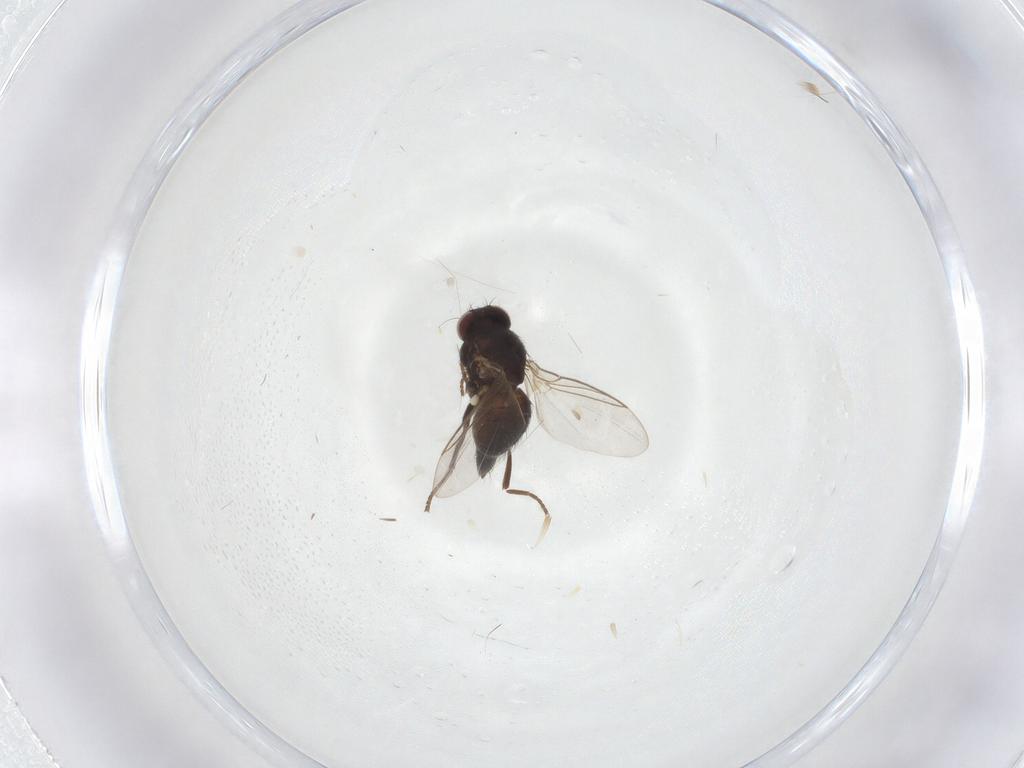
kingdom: Animalia
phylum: Arthropoda
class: Insecta
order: Diptera
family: Agromyzidae
